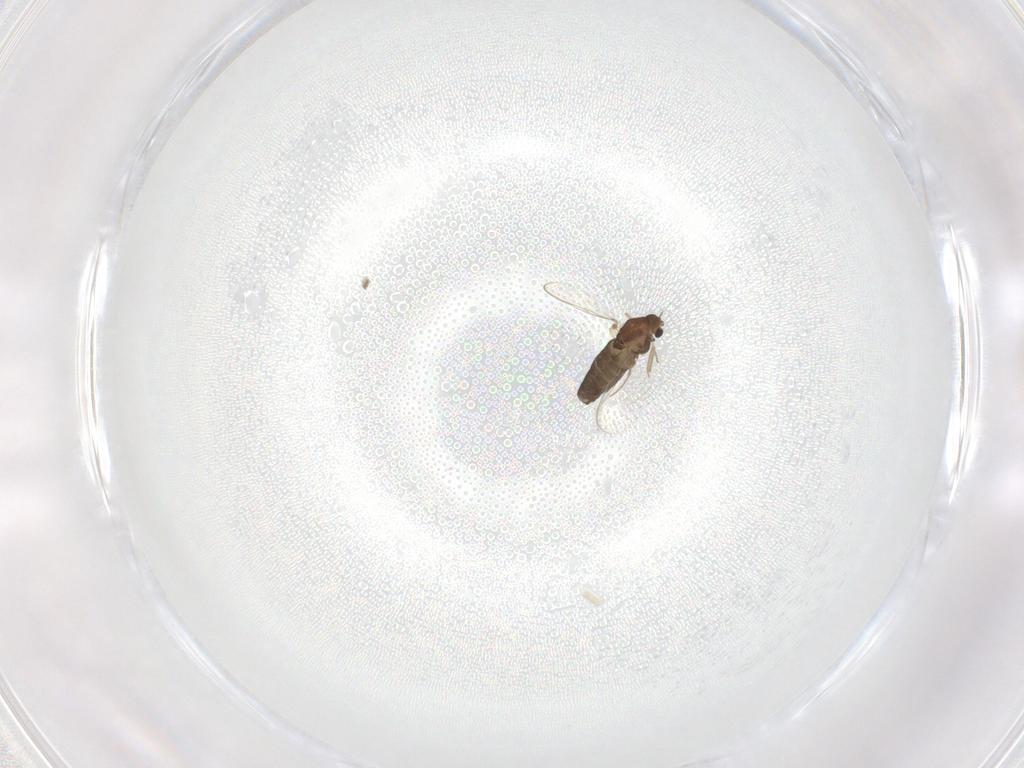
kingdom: Animalia
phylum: Arthropoda
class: Insecta
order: Diptera
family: Chironomidae
